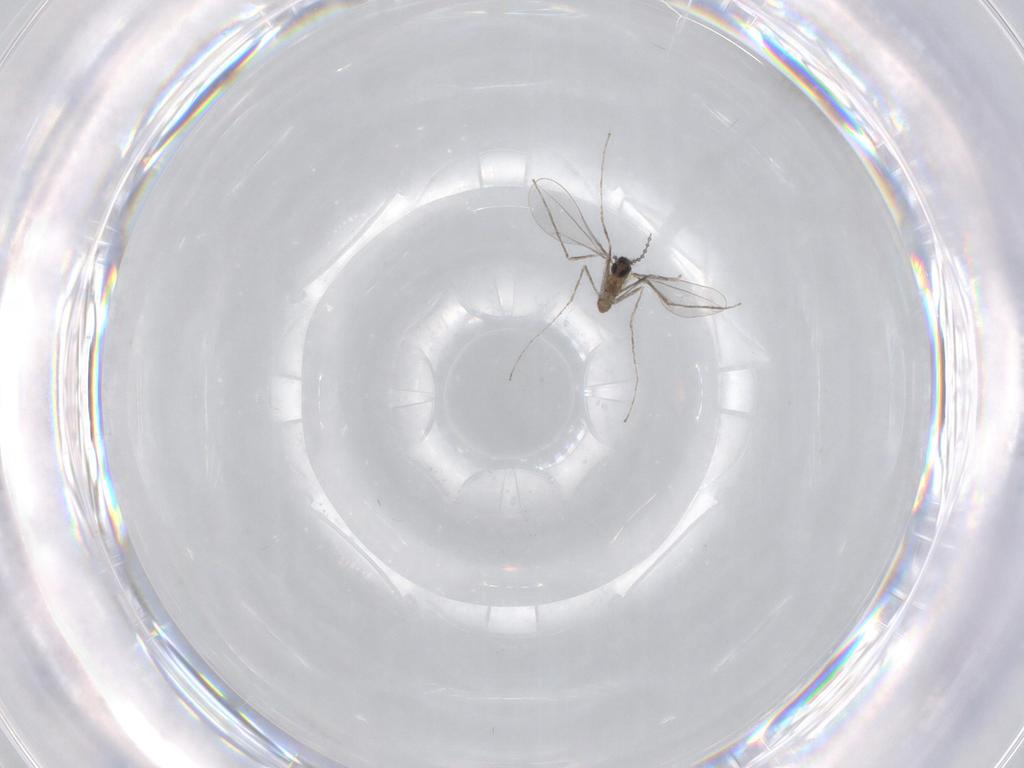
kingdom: Animalia
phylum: Arthropoda
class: Insecta
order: Diptera
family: Cecidomyiidae
